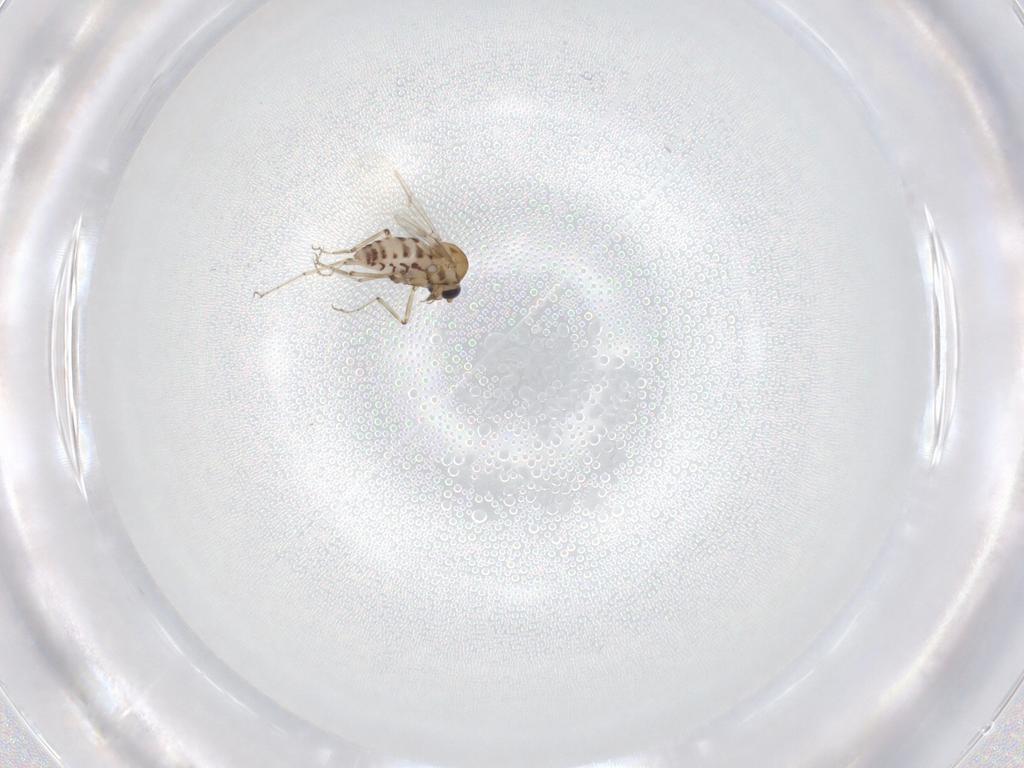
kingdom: Animalia
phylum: Arthropoda
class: Insecta
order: Diptera
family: Ceratopogonidae
